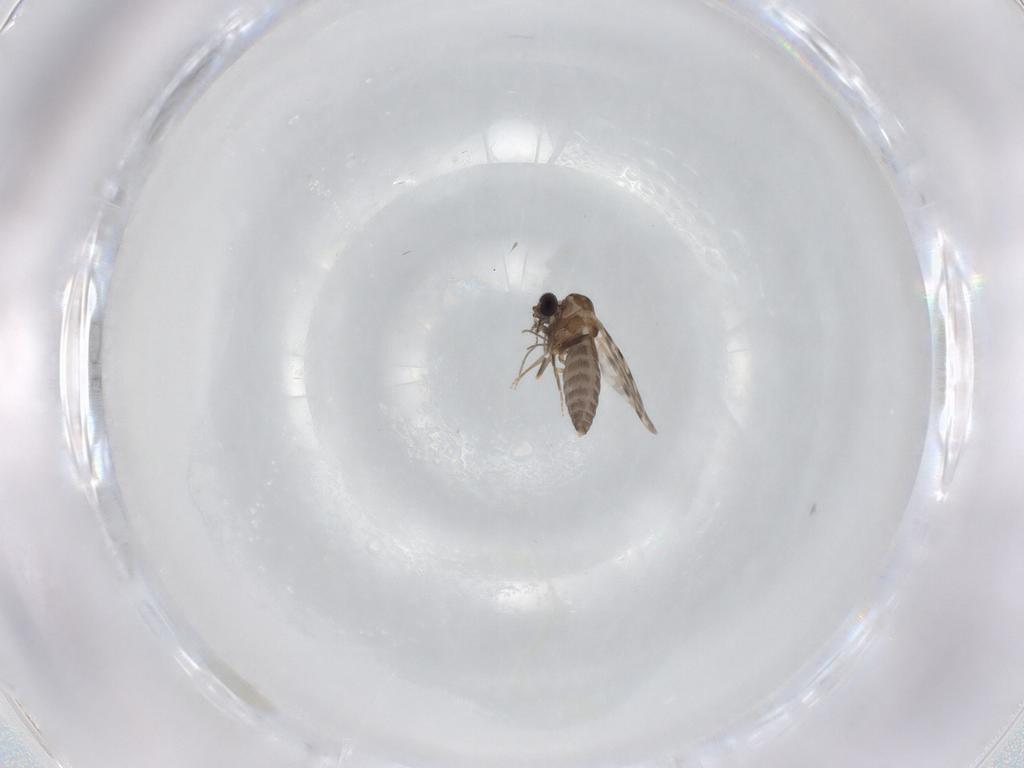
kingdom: Animalia
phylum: Arthropoda
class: Insecta
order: Diptera
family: Ceratopogonidae
